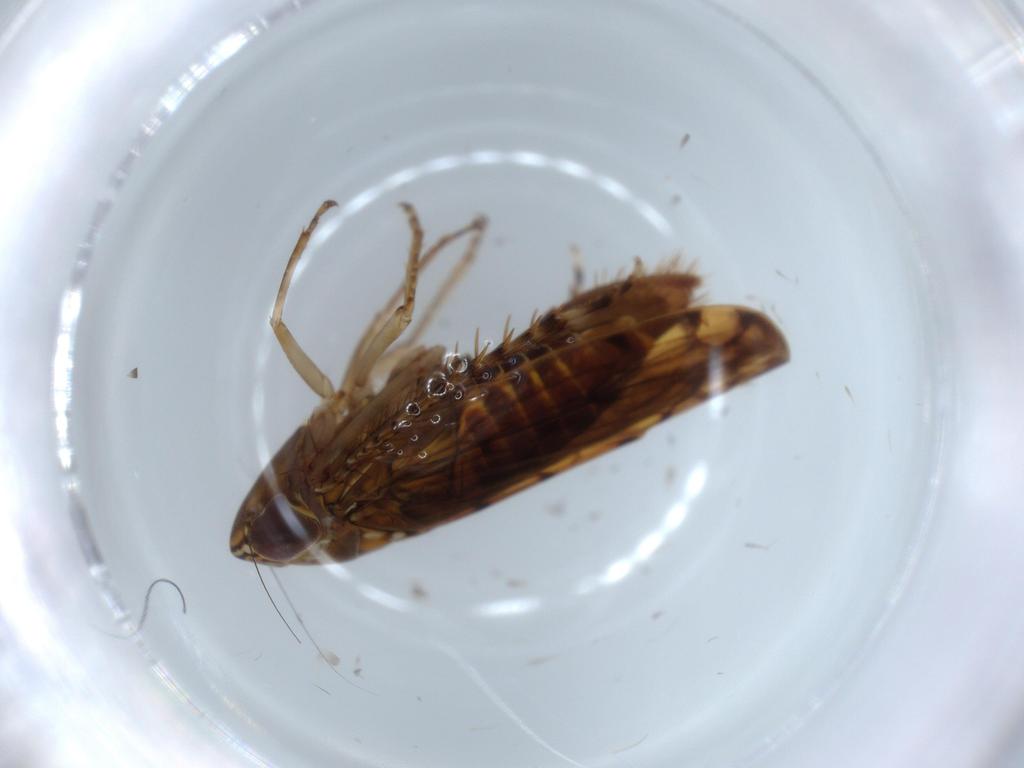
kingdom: Animalia
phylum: Arthropoda
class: Insecta
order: Hemiptera
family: Cicadellidae
